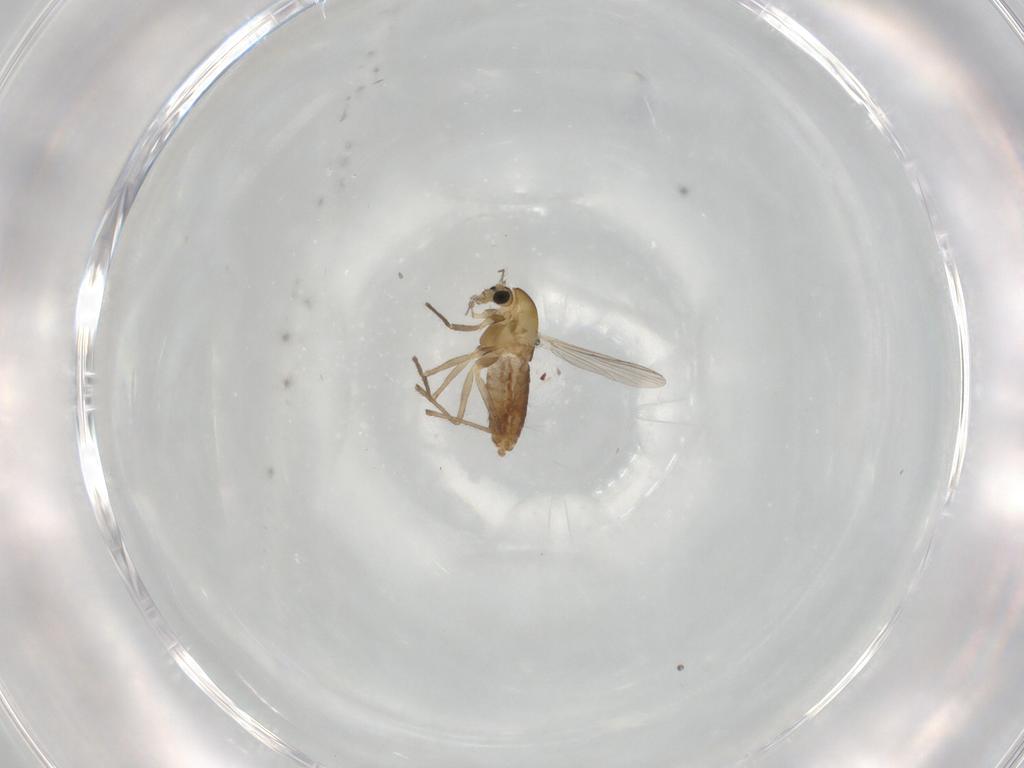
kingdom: Animalia
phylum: Arthropoda
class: Insecta
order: Diptera
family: Chironomidae
